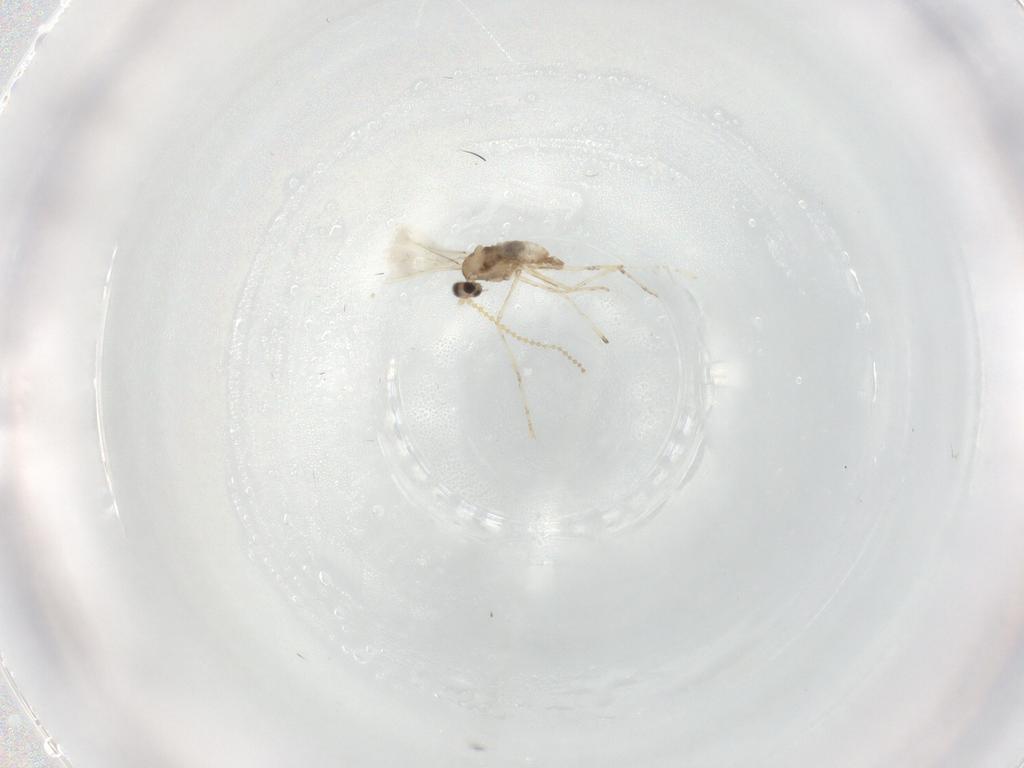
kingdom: Animalia
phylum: Arthropoda
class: Insecta
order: Diptera
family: Cecidomyiidae
